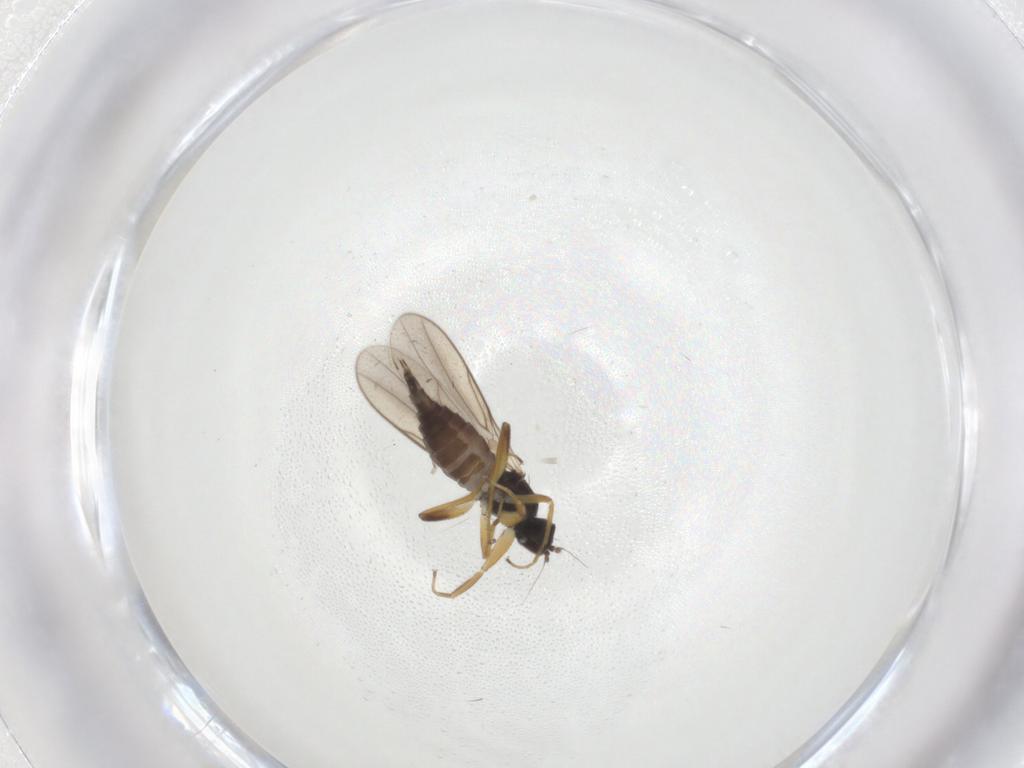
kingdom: Animalia
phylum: Arthropoda
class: Insecta
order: Diptera
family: Hybotidae
